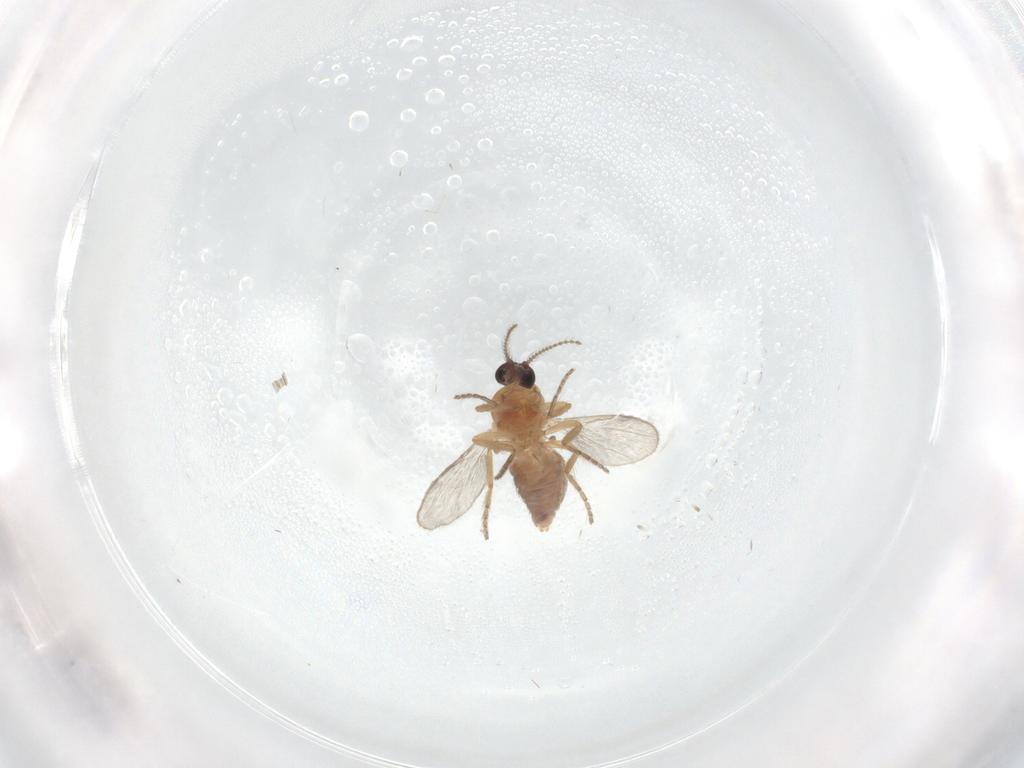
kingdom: Animalia
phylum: Arthropoda
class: Insecta
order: Diptera
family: Ceratopogonidae
